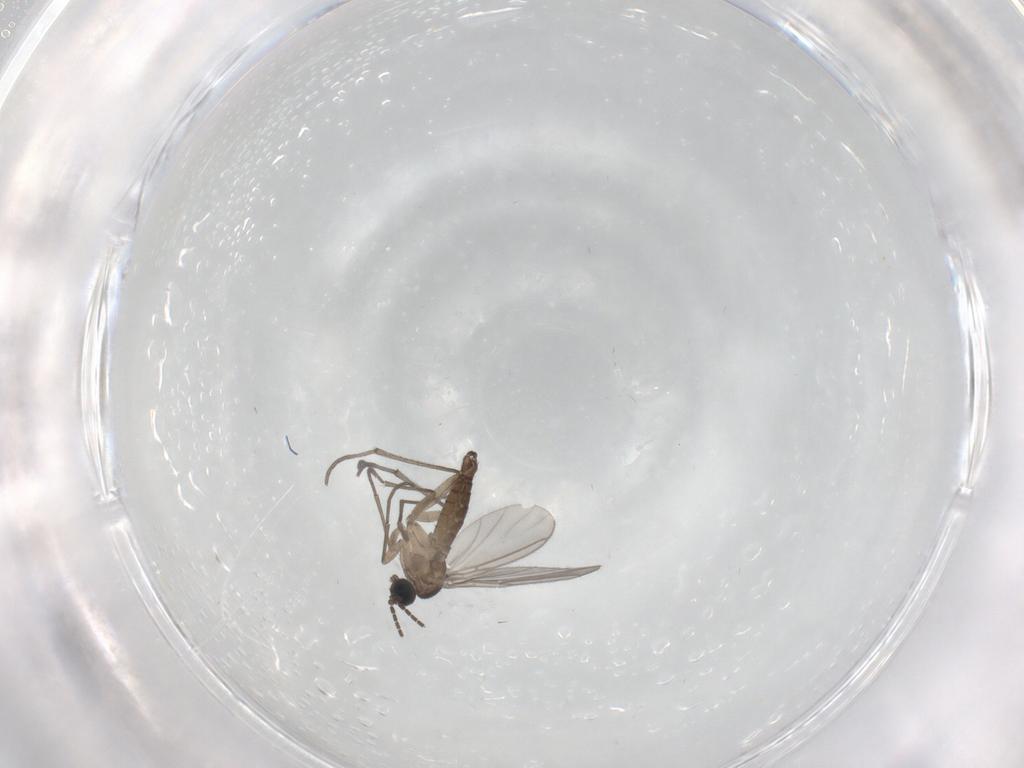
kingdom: Animalia
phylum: Arthropoda
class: Insecta
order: Diptera
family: Sciaridae
